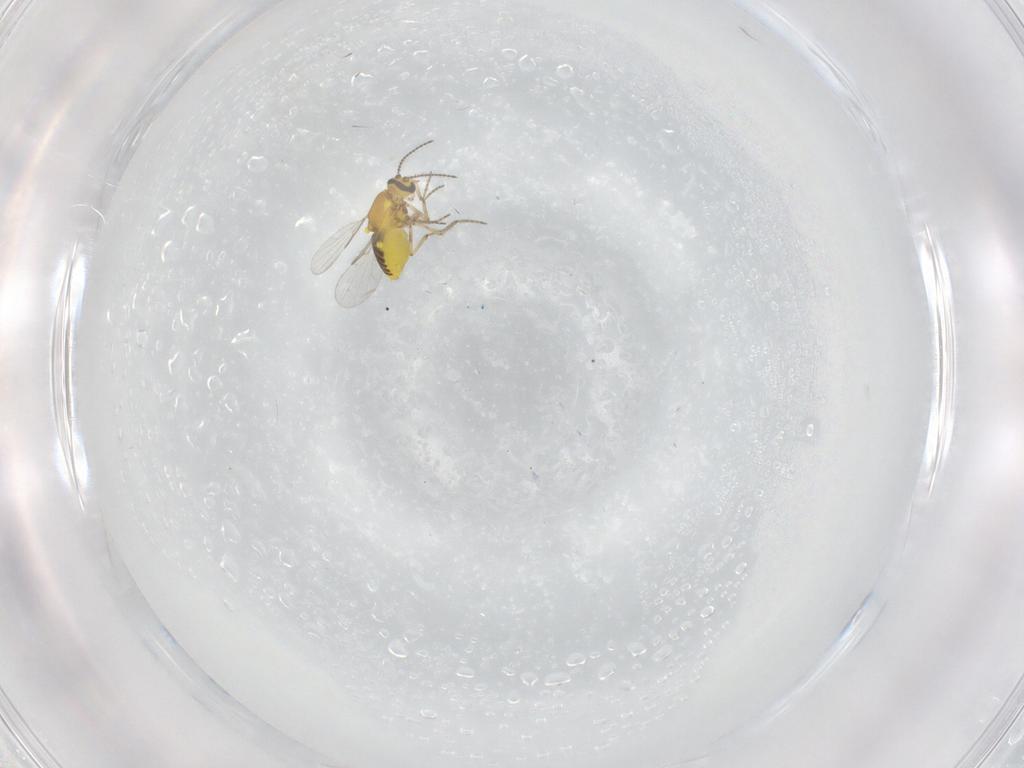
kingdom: Animalia
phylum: Arthropoda
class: Insecta
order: Diptera
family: Ceratopogonidae
